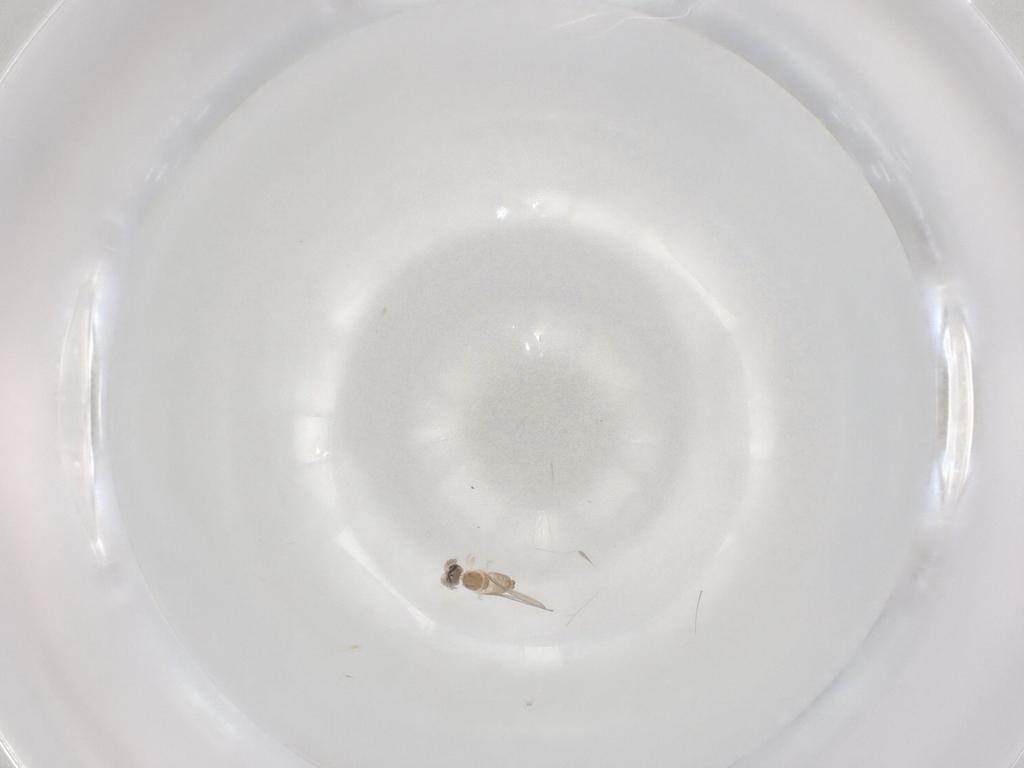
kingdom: Animalia
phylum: Arthropoda
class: Insecta
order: Diptera
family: Cecidomyiidae
